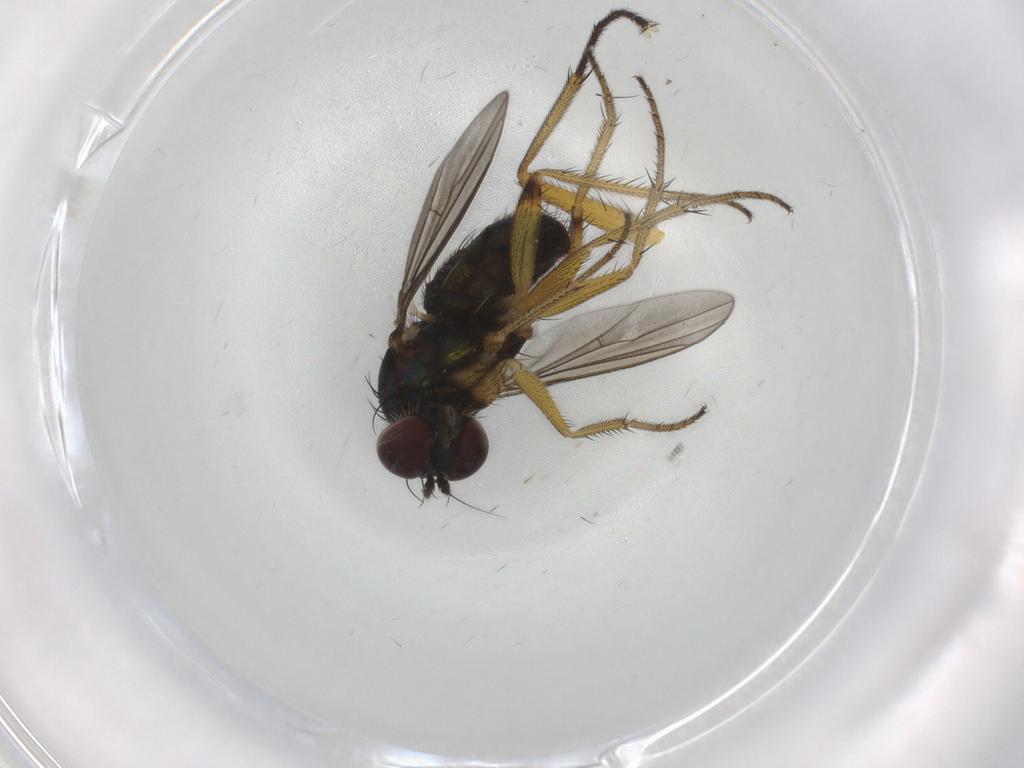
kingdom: Animalia
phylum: Arthropoda
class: Insecta
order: Diptera
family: Dolichopodidae
